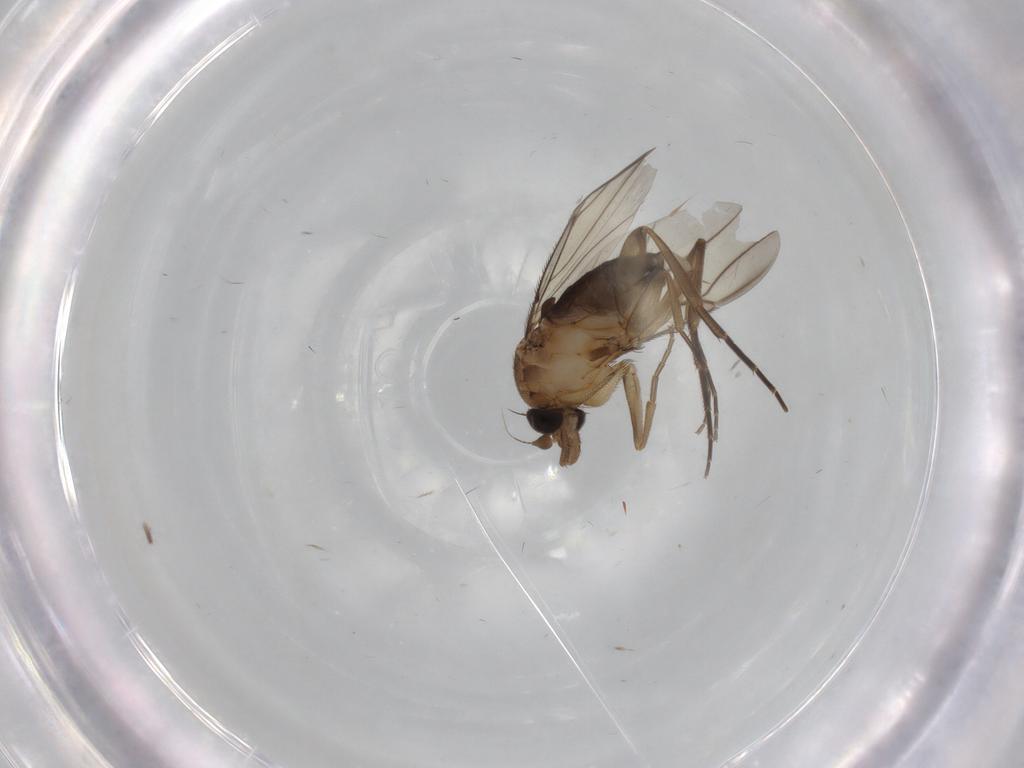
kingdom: Animalia
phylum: Arthropoda
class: Insecta
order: Diptera
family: Phoridae
